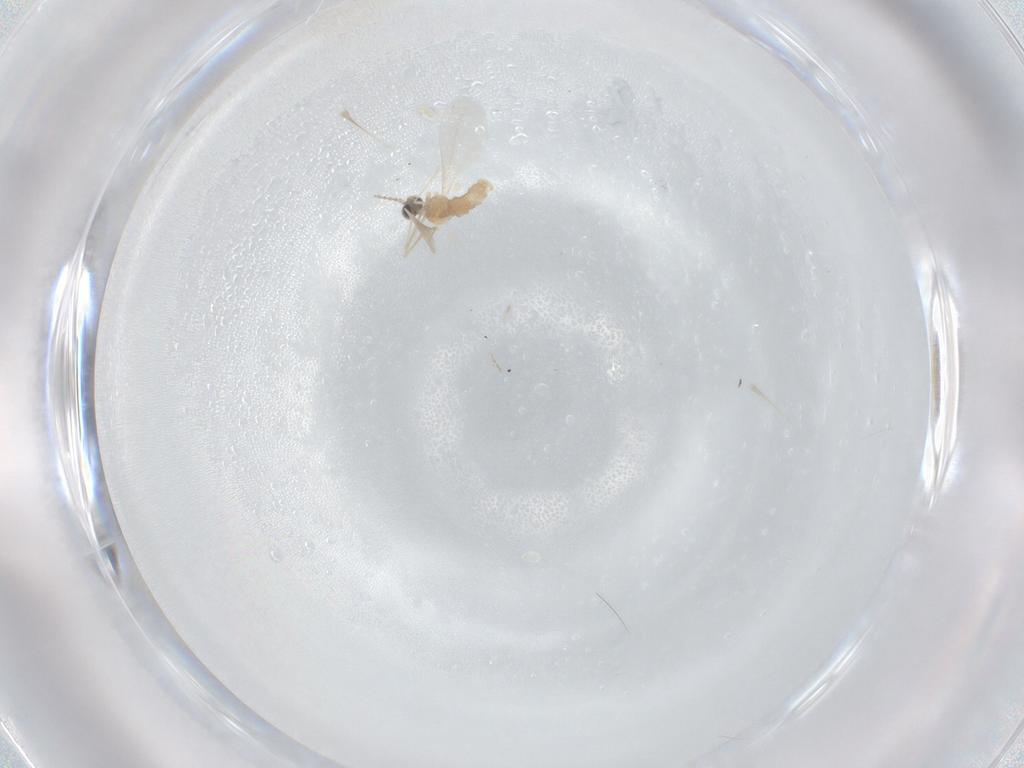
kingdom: Animalia
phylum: Arthropoda
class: Insecta
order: Diptera
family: Cecidomyiidae
